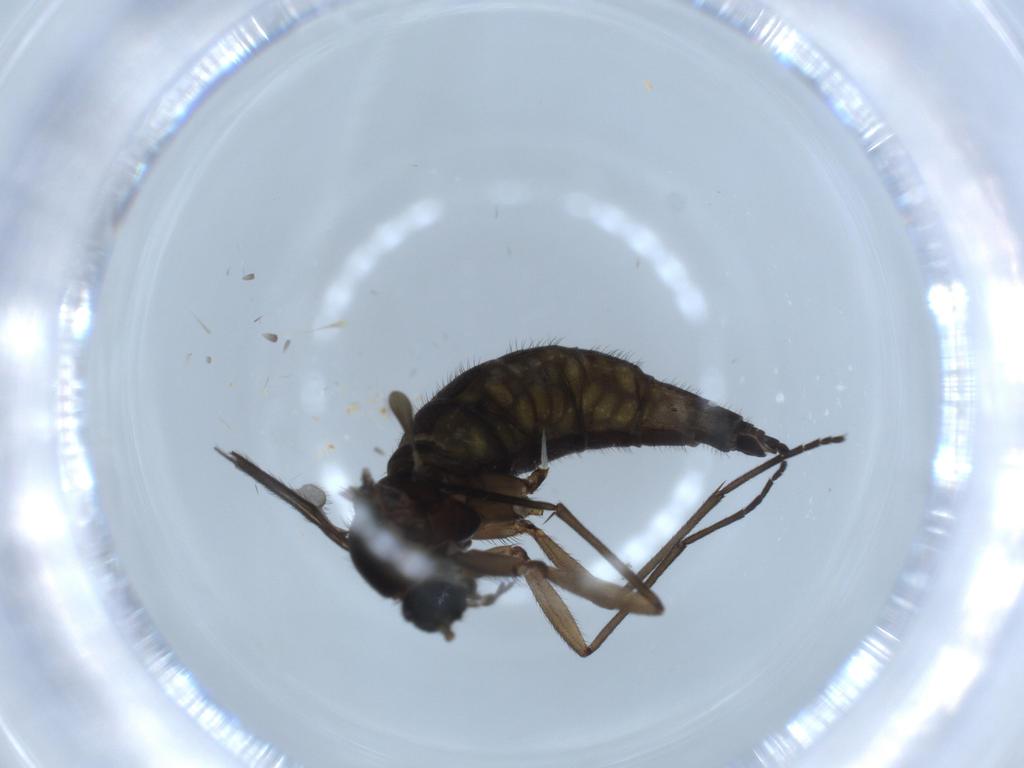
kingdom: Animalia
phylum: Arthropoda
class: Insecta
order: Diptera
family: Sciaridae
